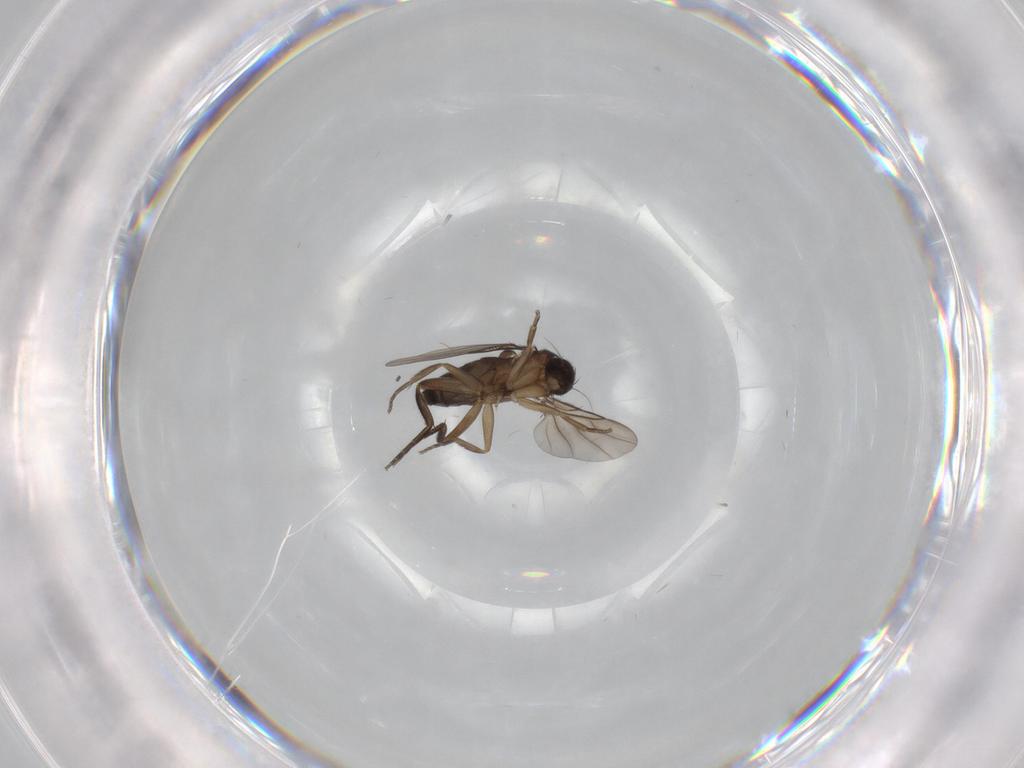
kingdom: Animalia
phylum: Arthropoda
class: Insecta
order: Diptera
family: Phoridae
